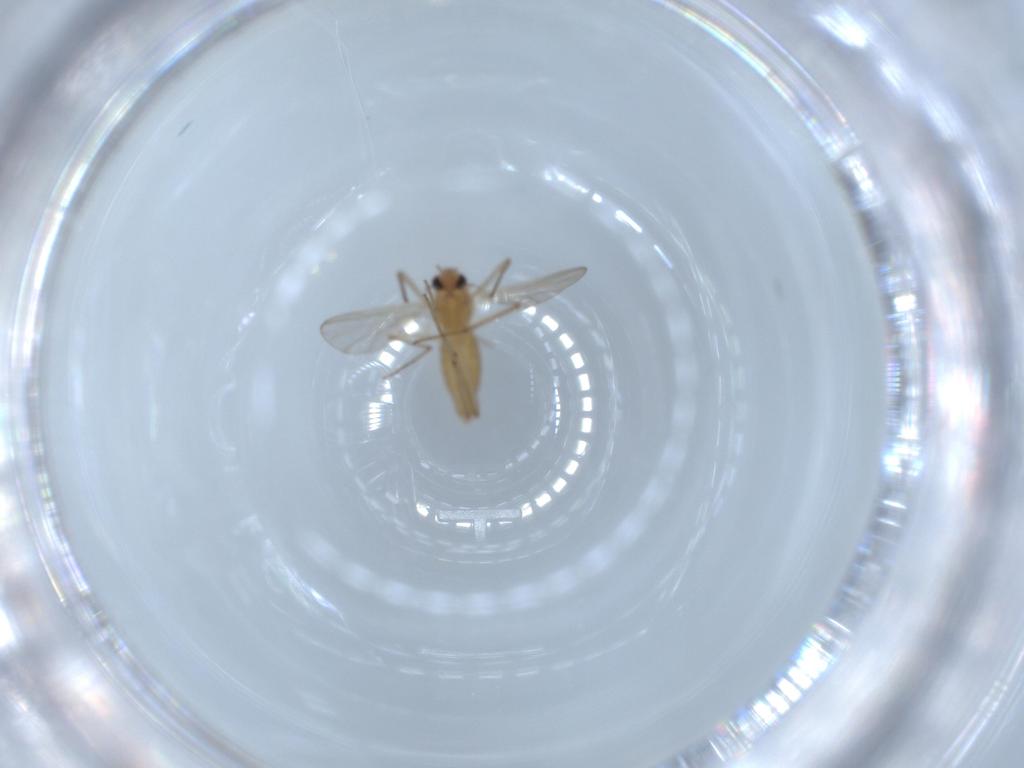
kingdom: Animalia
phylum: Arthropoda
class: Insecta
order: Diptera
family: Chironomidae
